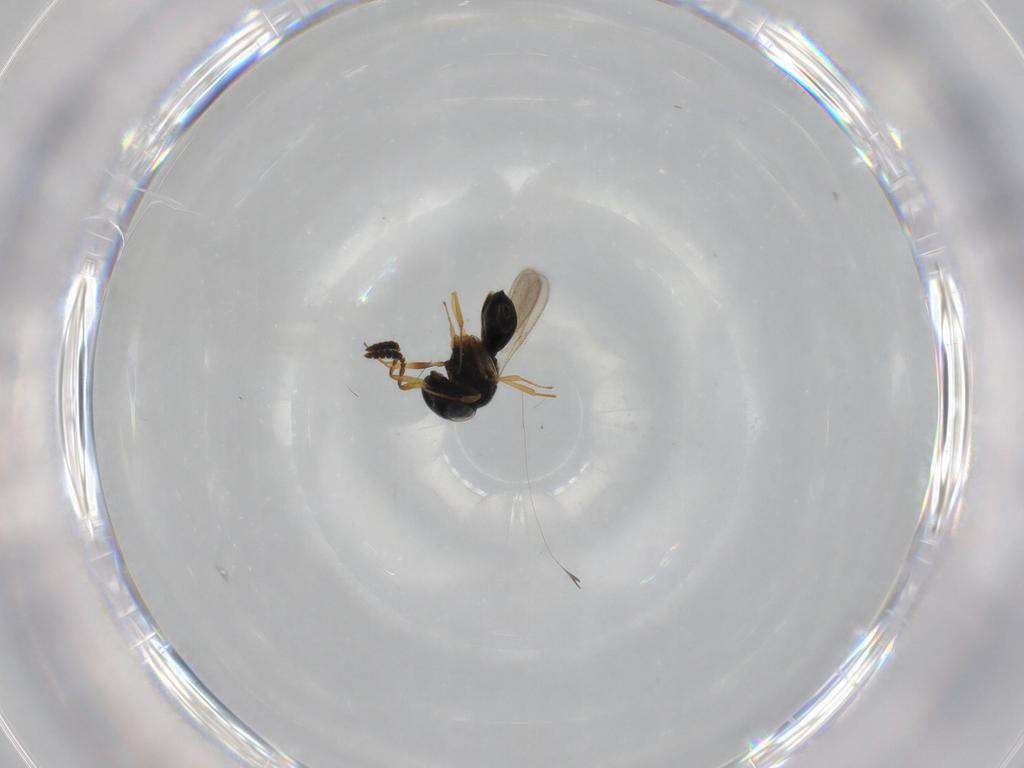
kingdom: Animalia
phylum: Arthropoda
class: Insecta
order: Hymenoptera
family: Scelionidae
